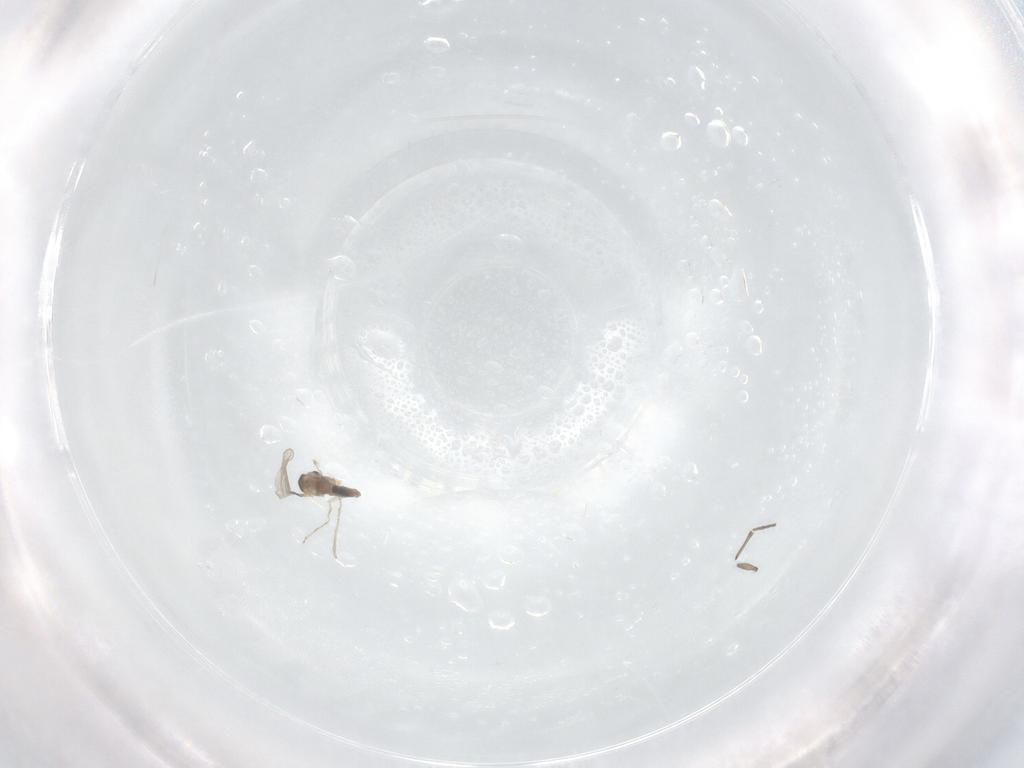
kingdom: Animalia
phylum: Arthropoda
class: Insecta
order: Diptera
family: Cecidomyiidae
